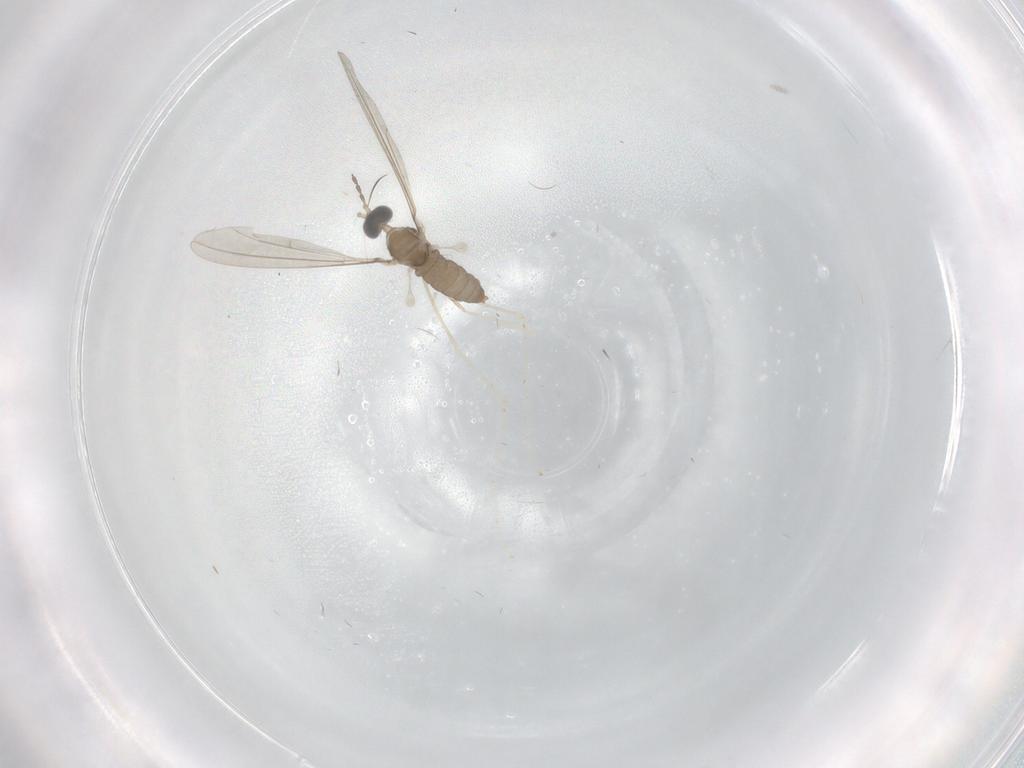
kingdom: Animalia
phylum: Arthropoda
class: Insecta
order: Diptera
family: Cecidomyiidae
